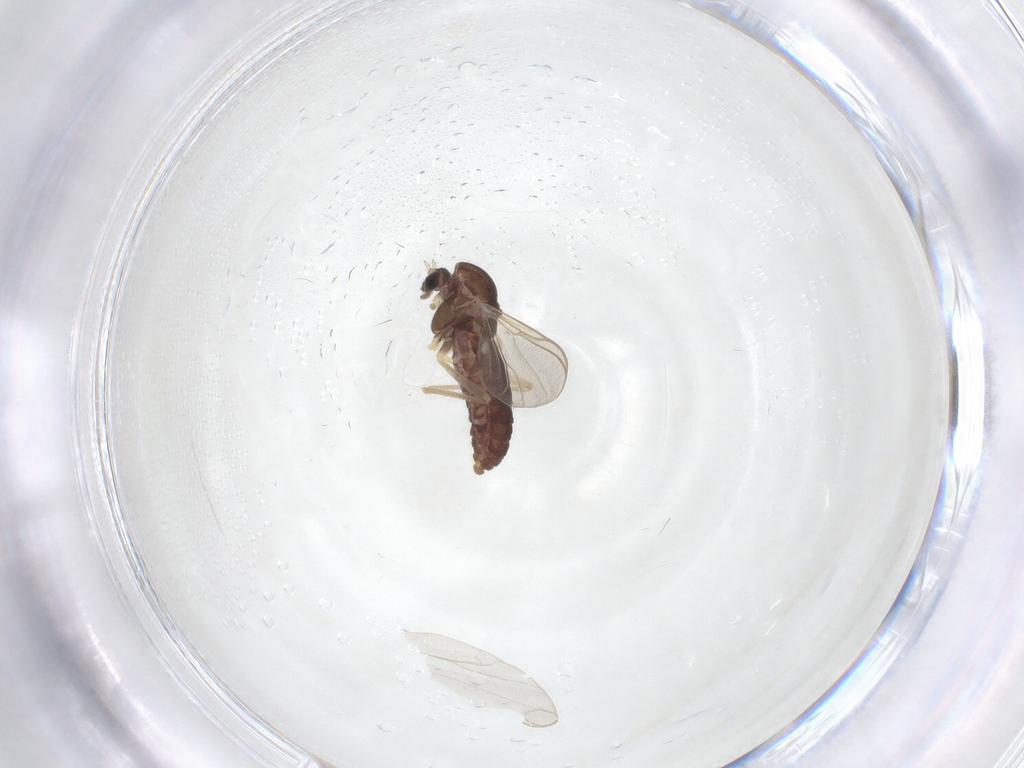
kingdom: Animalia
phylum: Arthropoda
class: Insecta
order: Diptera
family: Chironomidae
